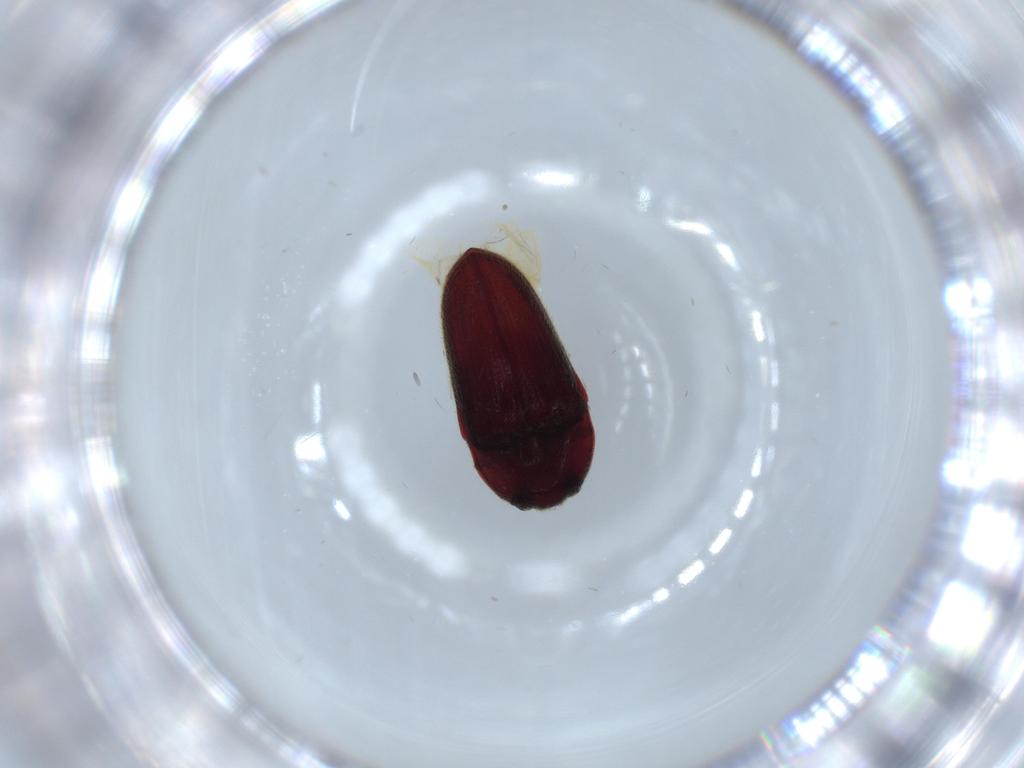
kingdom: Animalia
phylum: Arthropoda
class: Insecta
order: Coleoptera
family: Throscidae
